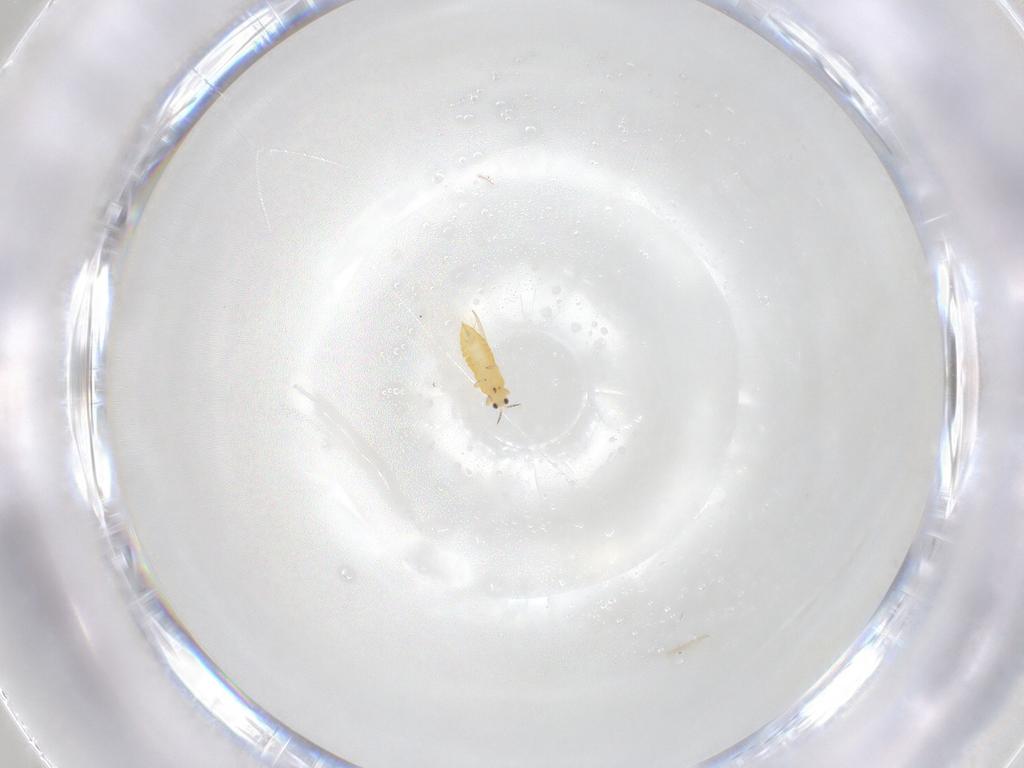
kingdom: Animalia
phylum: Arthropoda
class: Insecta
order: Thysanoptera
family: Thripidae
